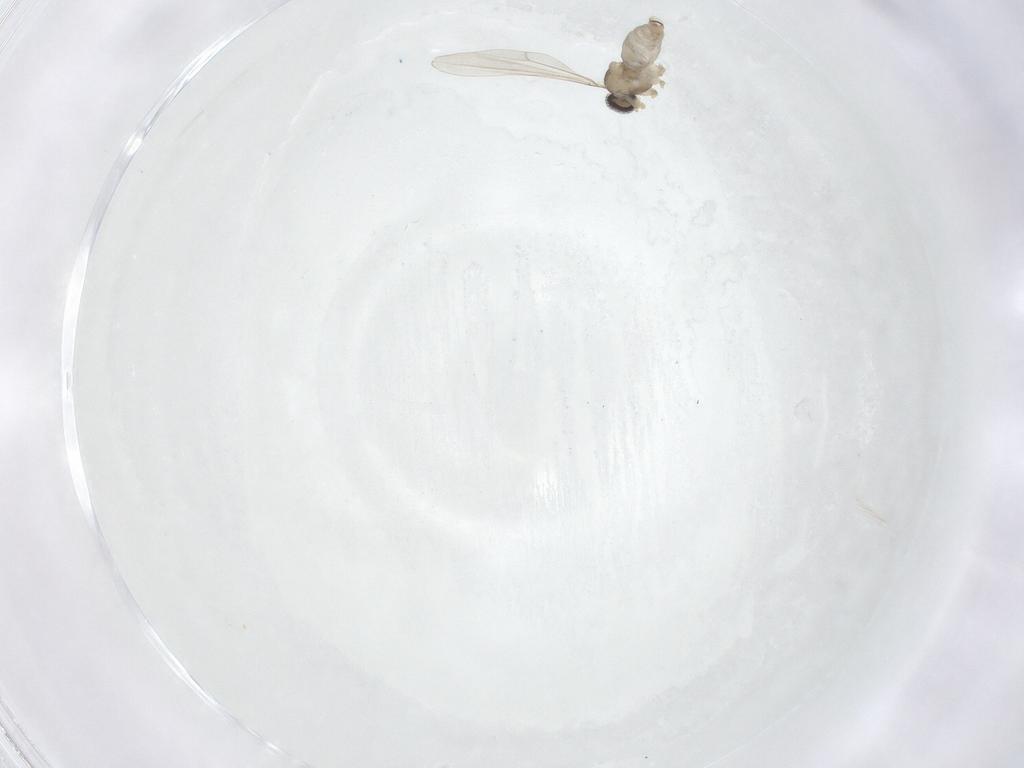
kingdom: Animalia
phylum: Arthropoda
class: Insecta
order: Diptera
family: Cecidomyiidae
